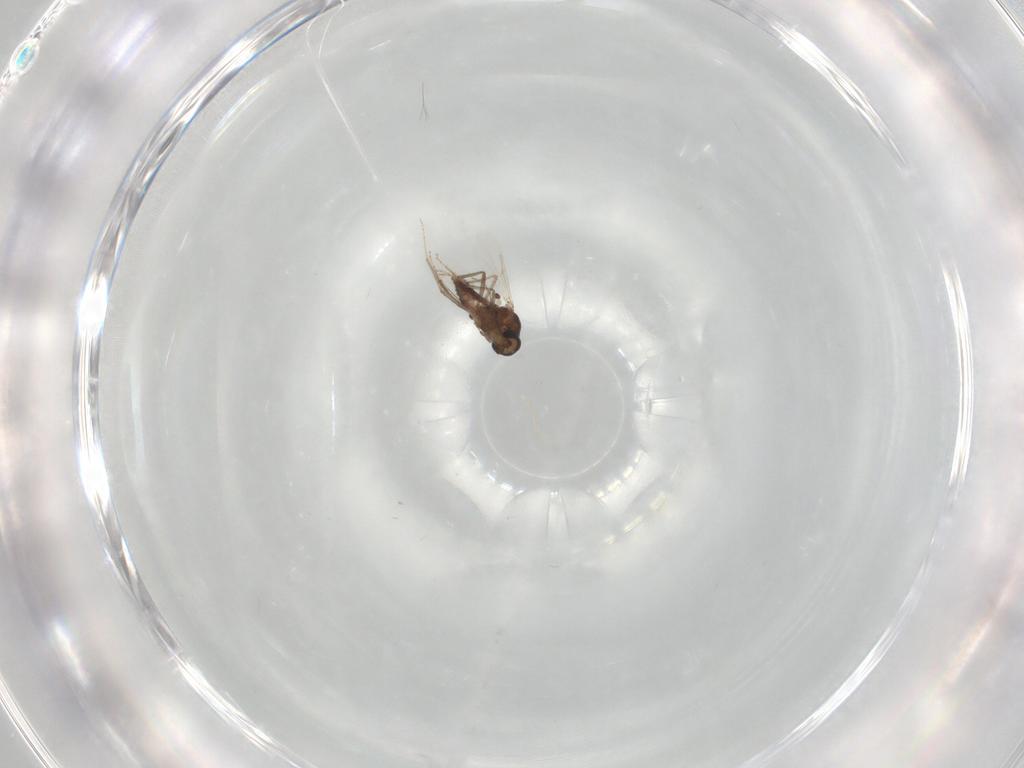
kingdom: Animalia
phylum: Arthropoda
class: Insecta
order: Diptera
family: Ceratopogonidae
